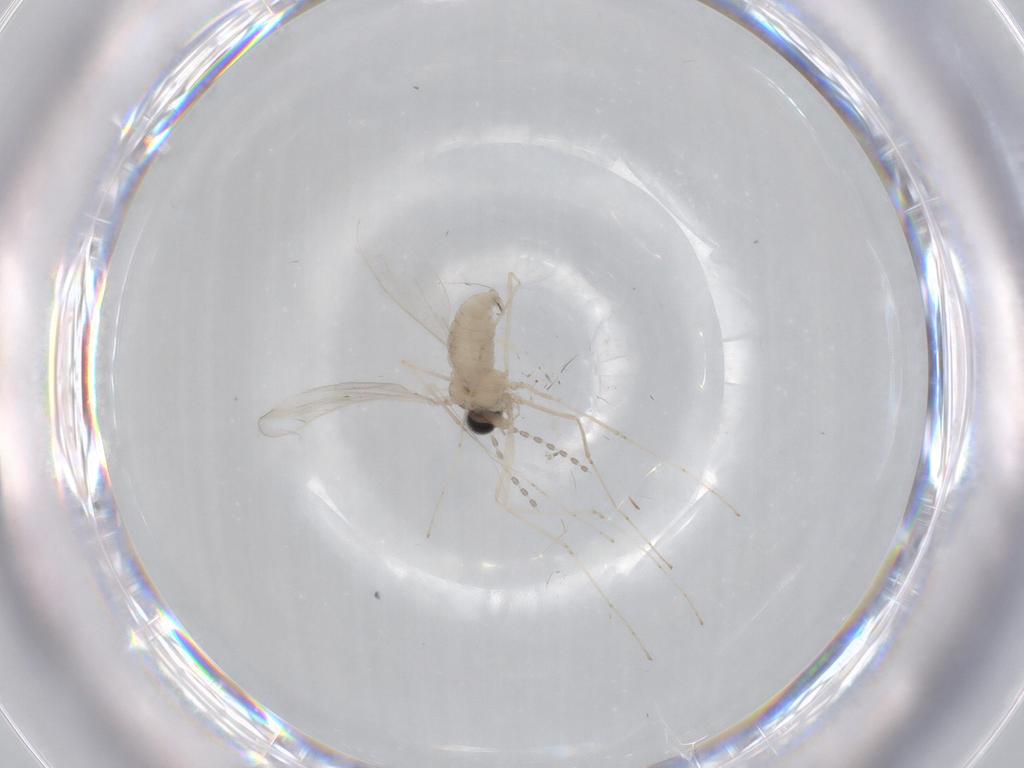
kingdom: Animalia
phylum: Arthropoda
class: Insecta
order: Diptera
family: Cecidomyiidae
